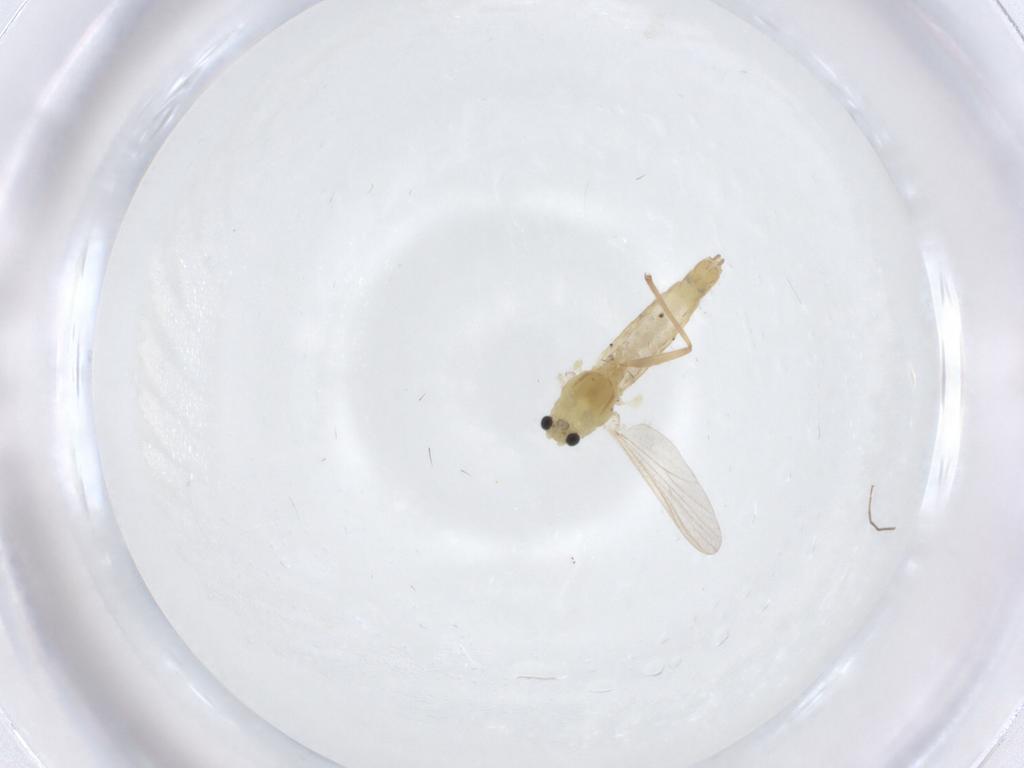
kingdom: Animalia
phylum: Arthropoda
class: Insecta
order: Diptera
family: Chironomidae
